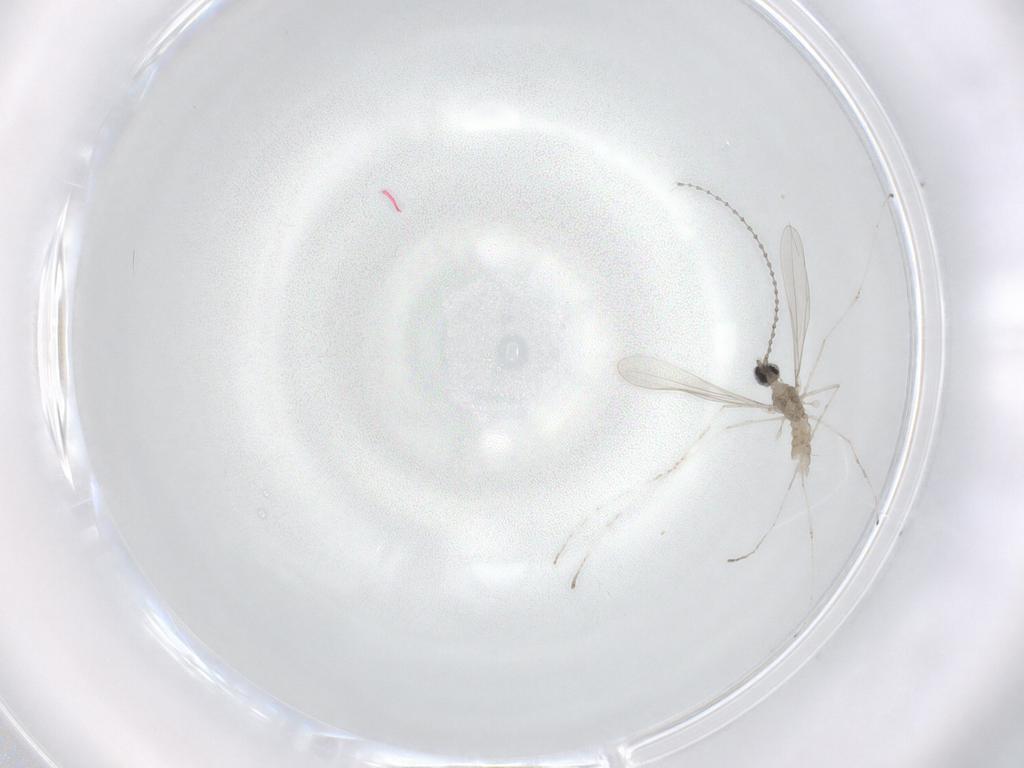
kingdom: Animalia
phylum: Arthropoda
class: Insecta
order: Diptera
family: Cecidomyiidae
